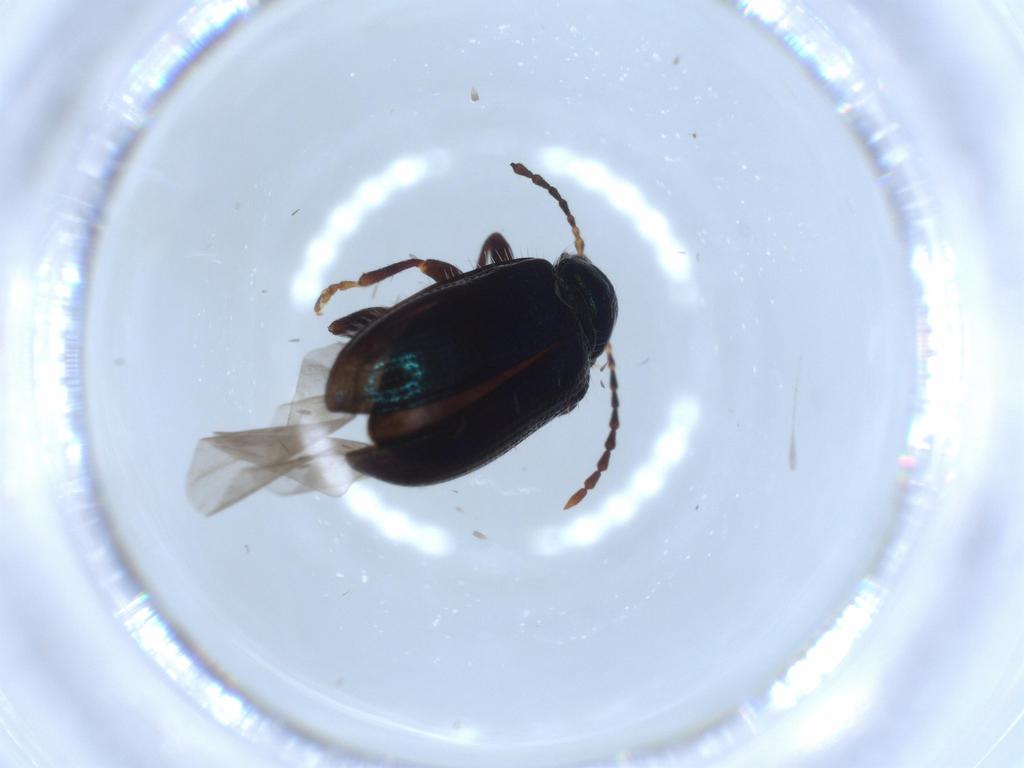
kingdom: Animalia
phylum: Arthropoda
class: Insecta
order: Coleoptera
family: Chrysomelidae
